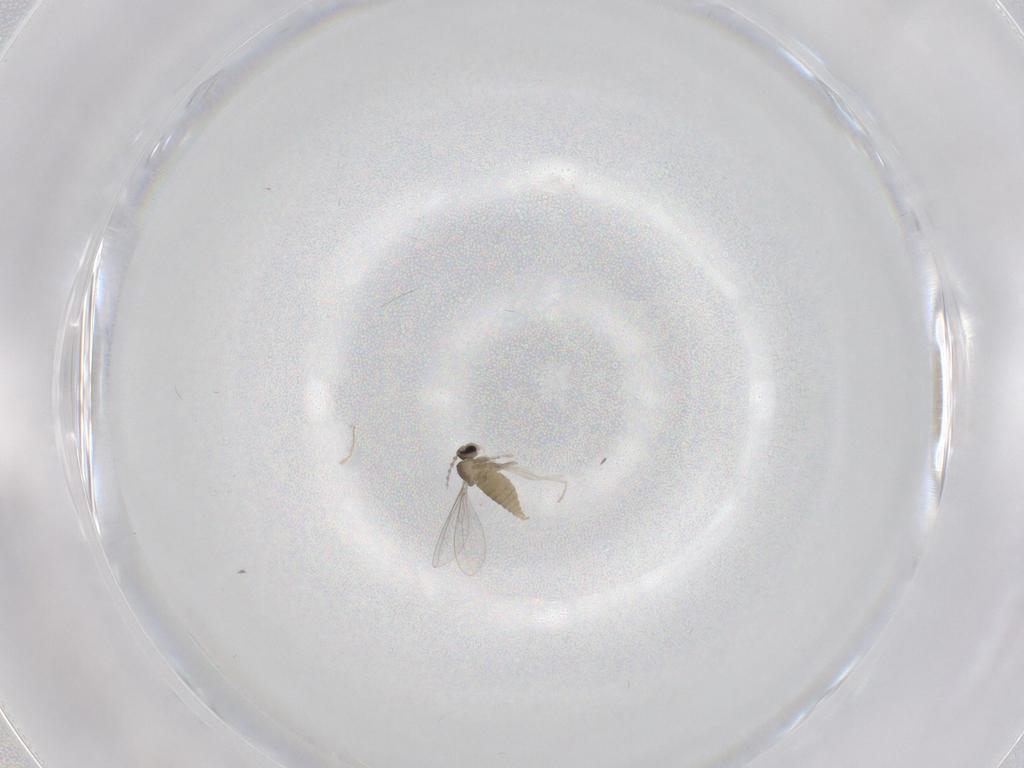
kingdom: Animalia
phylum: Arthropoda
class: Insecta
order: Diptera
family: Cecidomyiidae
